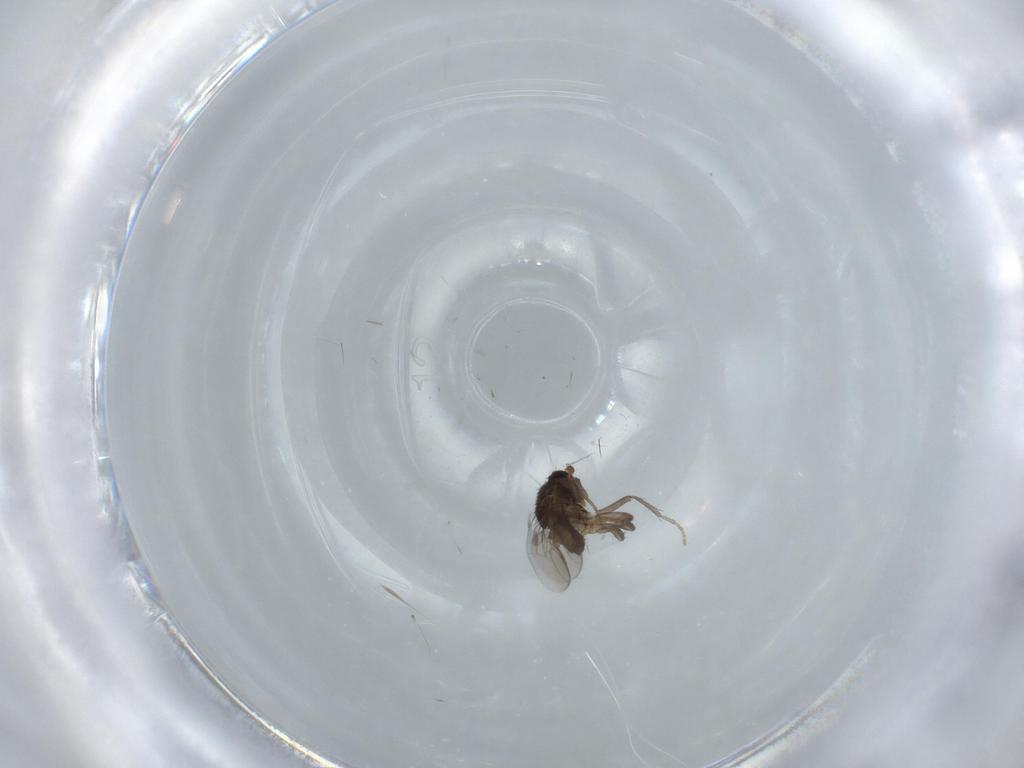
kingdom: Animalia
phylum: Arthropoda
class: Insecta
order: Diptera
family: Sphaeroceridae
